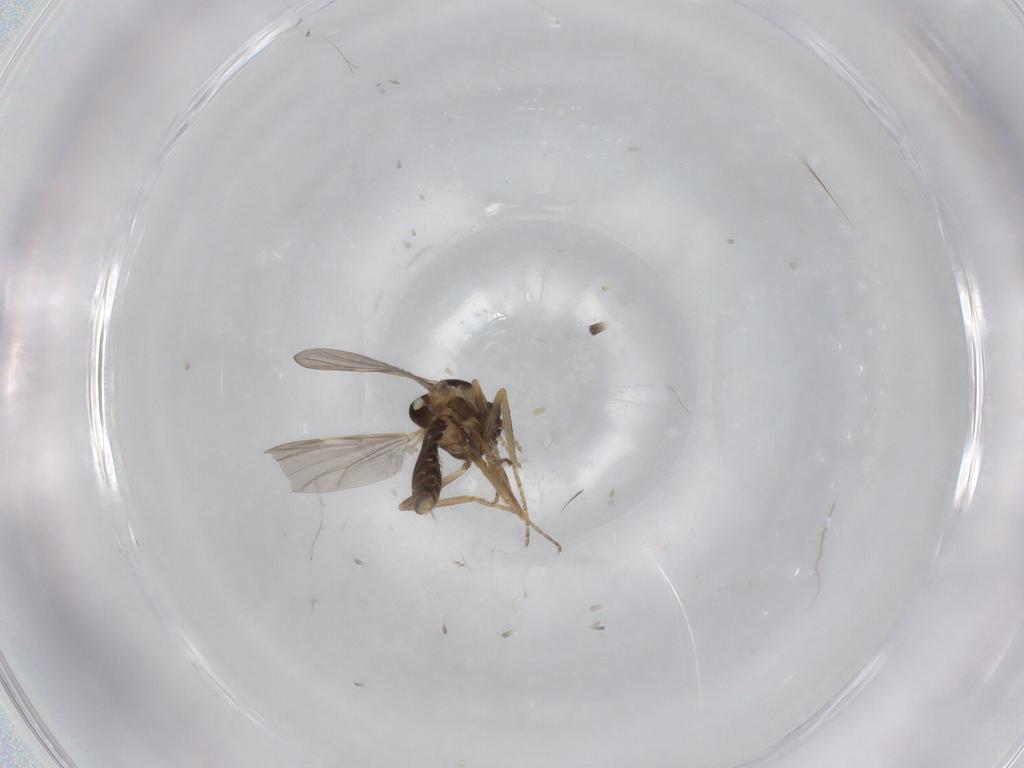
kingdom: Animalia
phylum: Arthropoda
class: Insecta
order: Diptera
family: Ceratopogonidae
